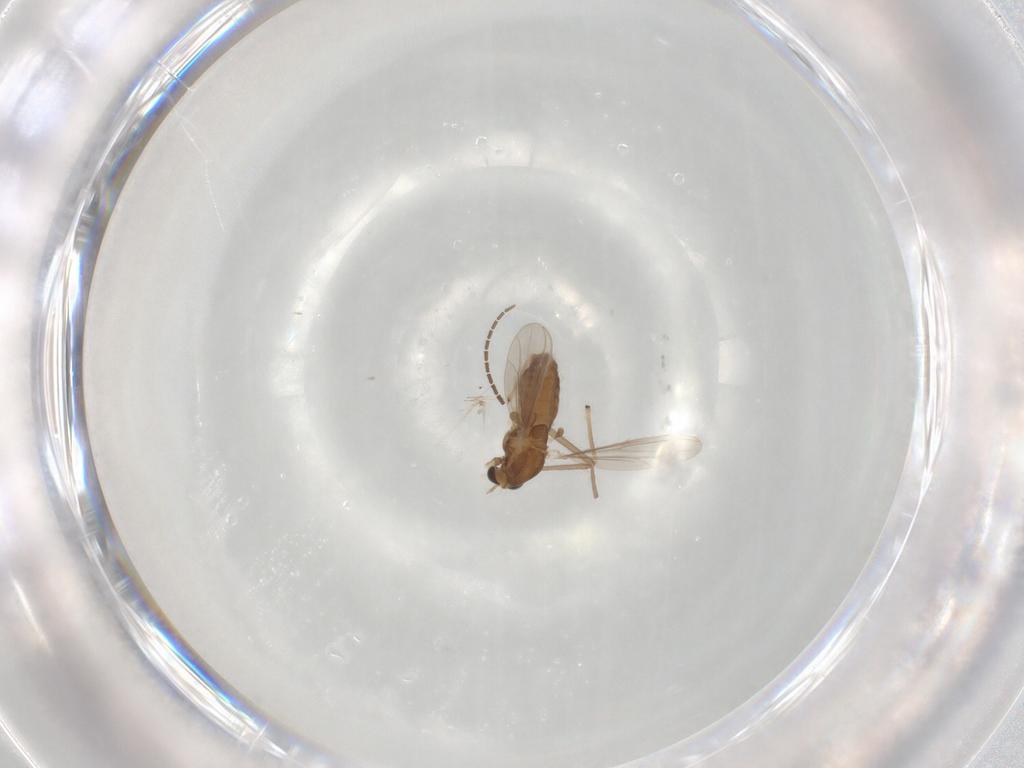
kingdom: Animalia
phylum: Arthropoda
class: Insecta
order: Diptera
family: Chironomidae
